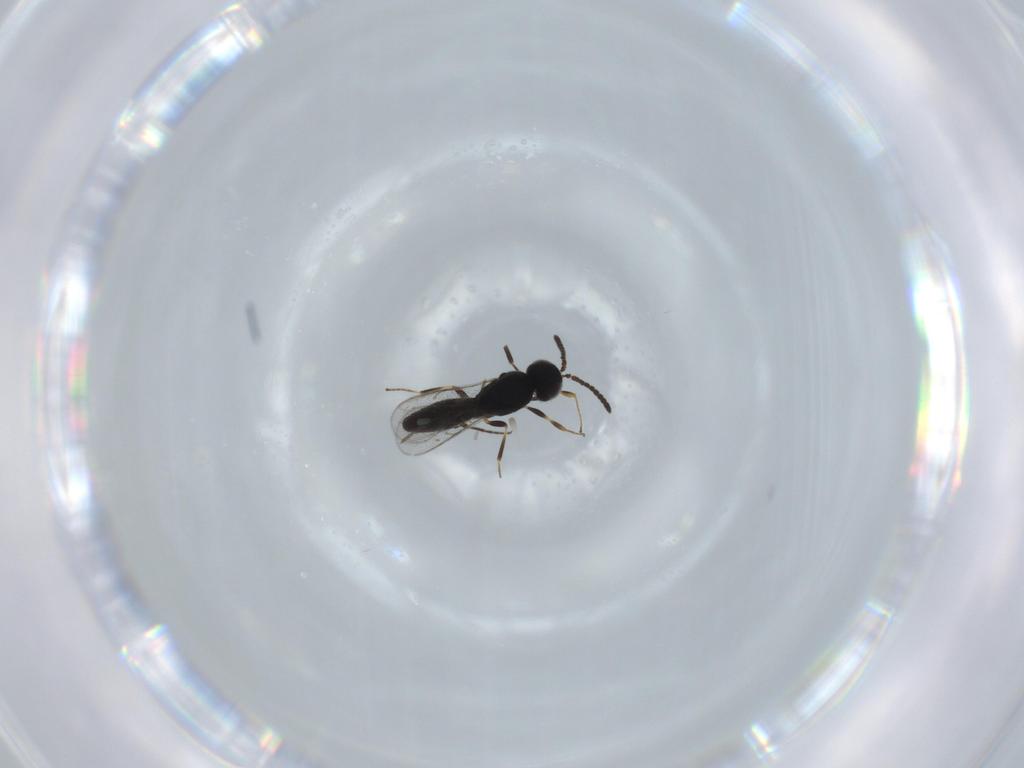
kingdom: Animalia
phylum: Arthropoda
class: Insecta
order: Hymenoptera
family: Scelionidae
